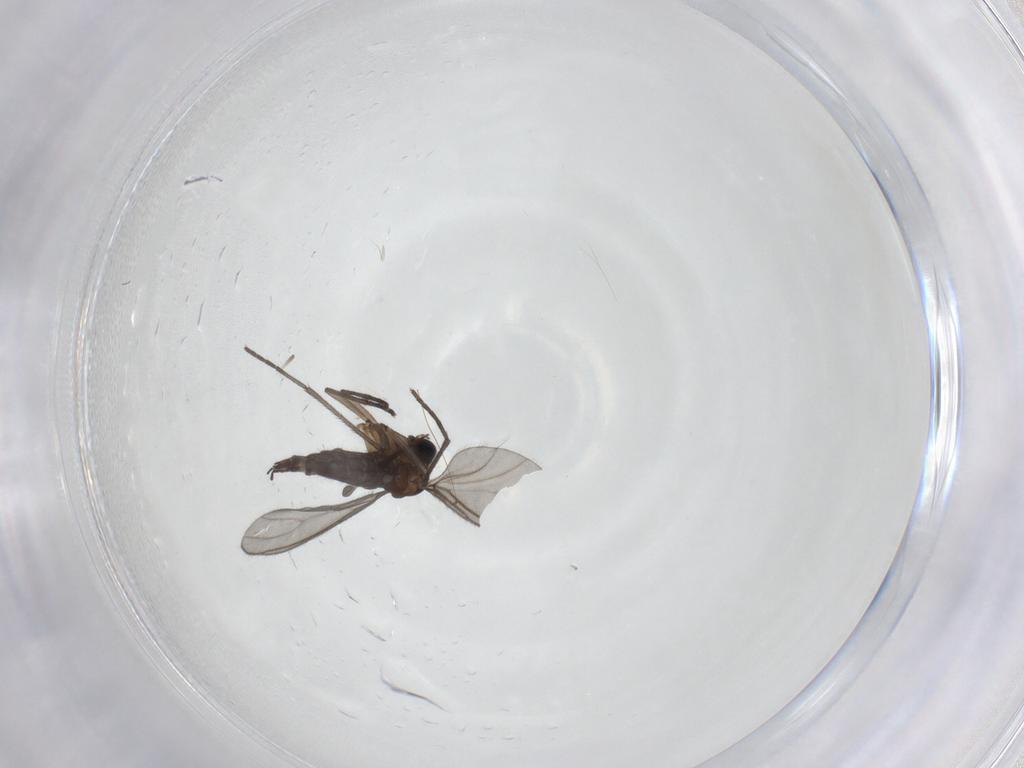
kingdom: Animalia
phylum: Arthropoda
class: Insecta
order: Diptera
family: Sciaridae
